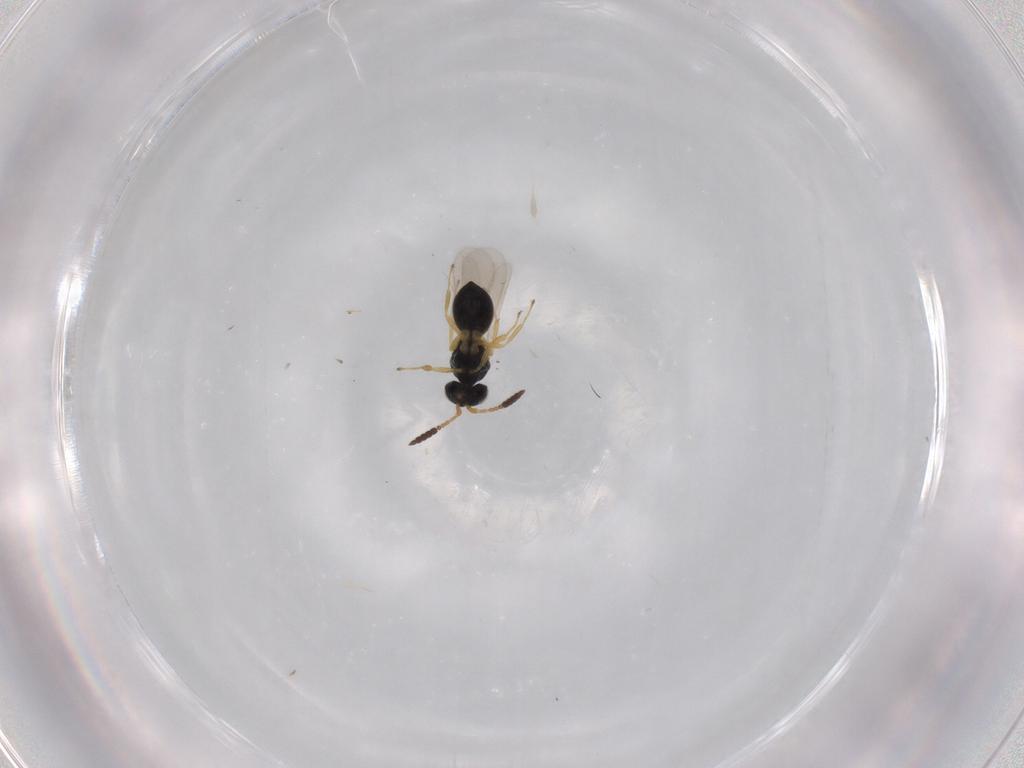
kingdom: Animalia
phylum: Arthropoda
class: Insecta
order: Hymenoptera
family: Scelionidae
